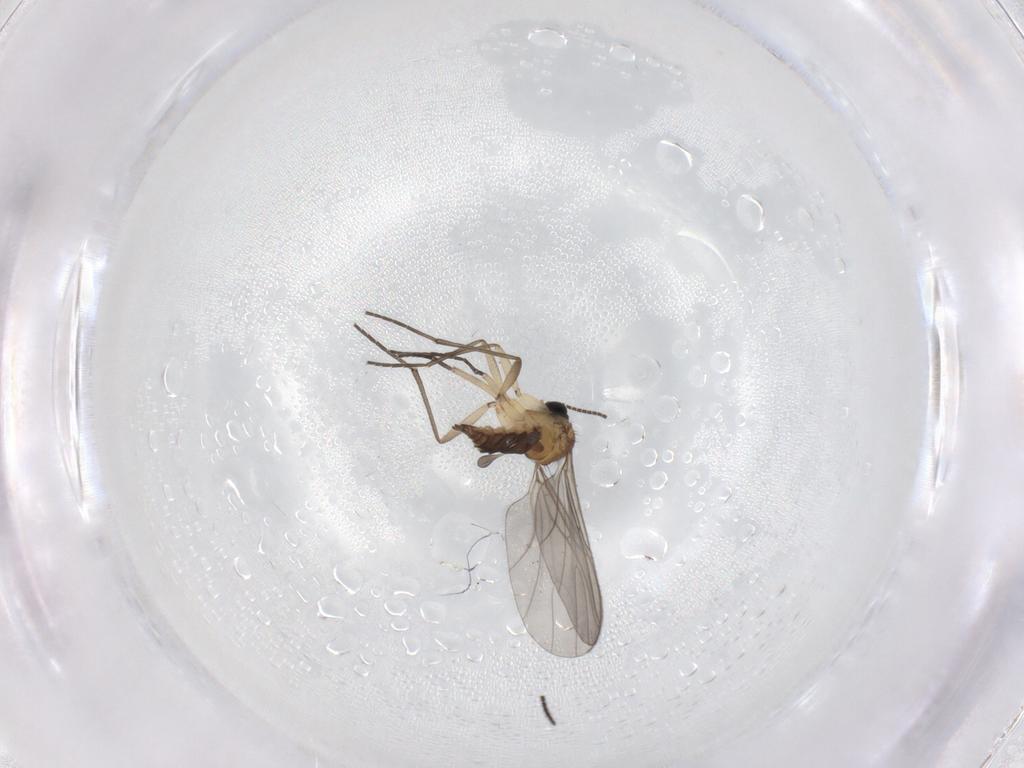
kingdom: Animalia
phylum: Arthropoda
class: Insecta
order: Diptera
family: Sciaridae
